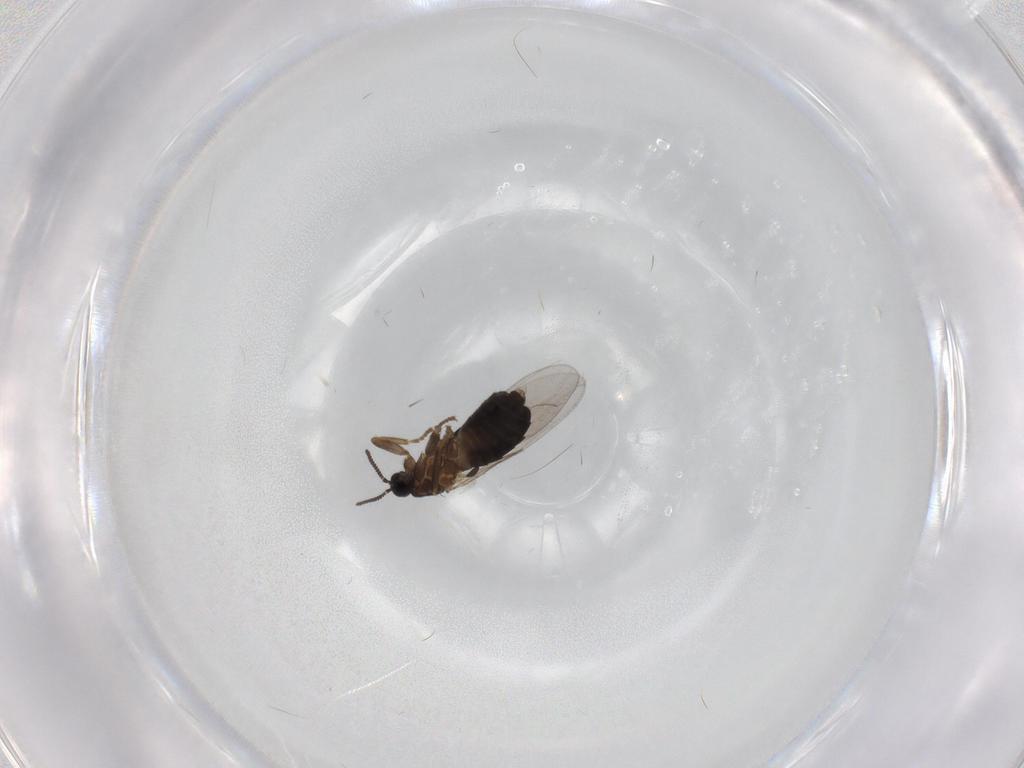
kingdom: Animalia
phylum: Arthropoda
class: Insecta
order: Diptera
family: Scatopsidae
